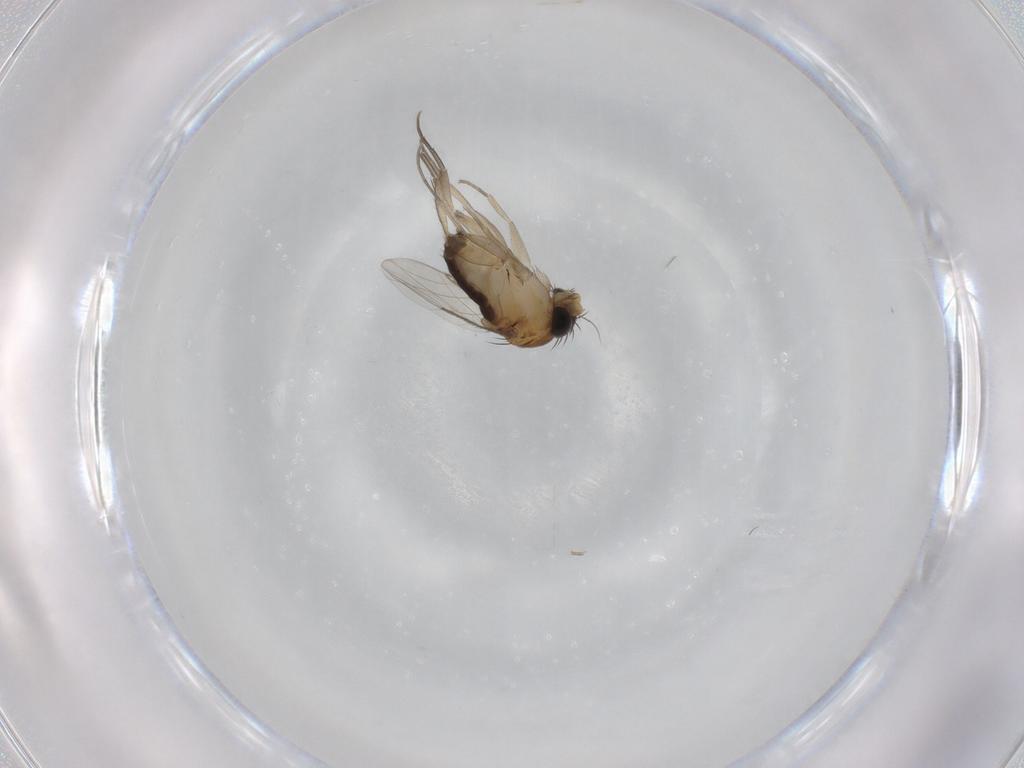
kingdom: Animalia
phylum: Arthropoda
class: Insecta
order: Diptera
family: Phoridae
